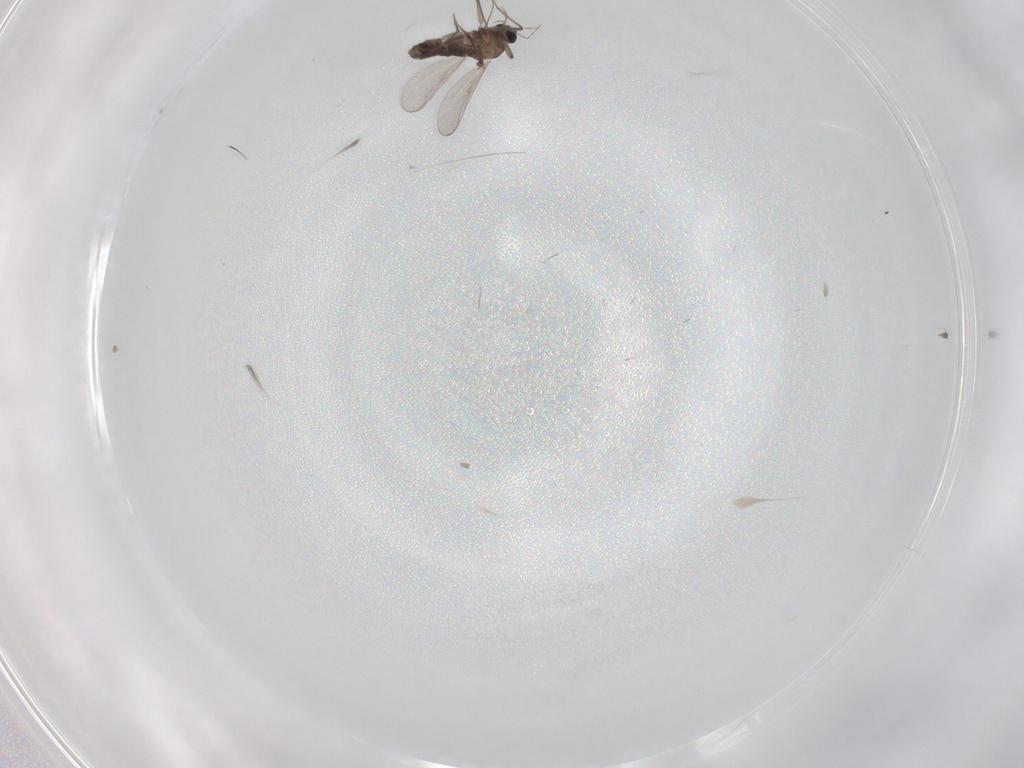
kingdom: Animalia
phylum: Arthropoda
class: Insecta
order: Diptera
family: Chironomidae
